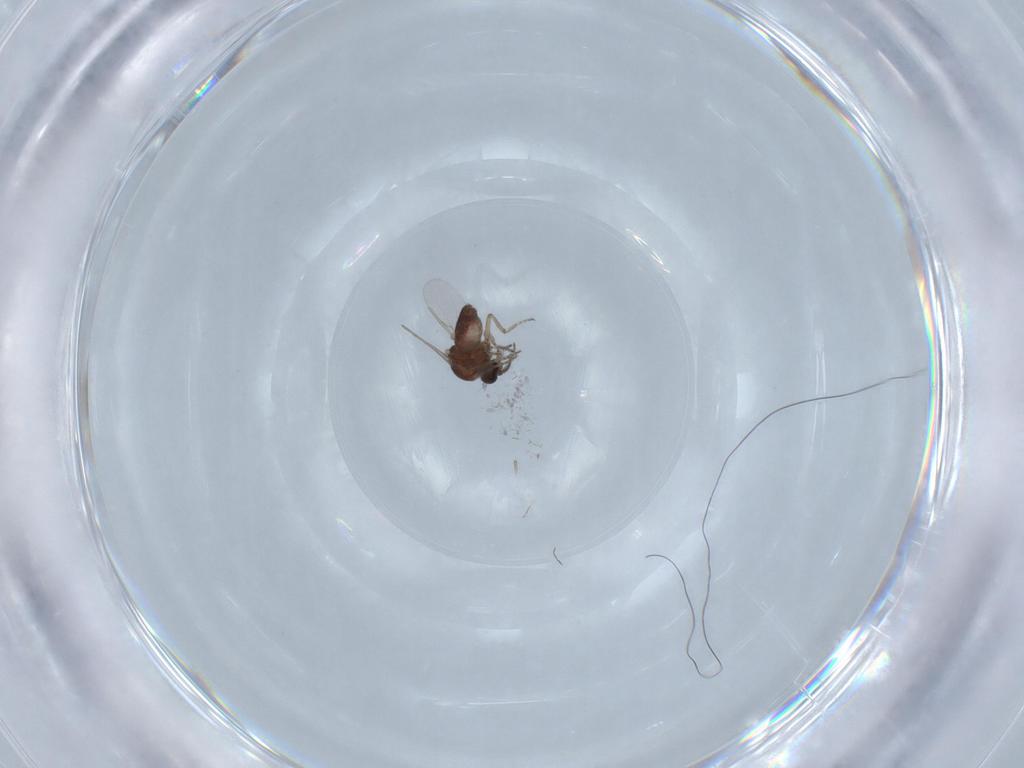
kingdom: Animalia
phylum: Arthropoda
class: Insecta
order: Diptera
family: Ceratopogonidae
